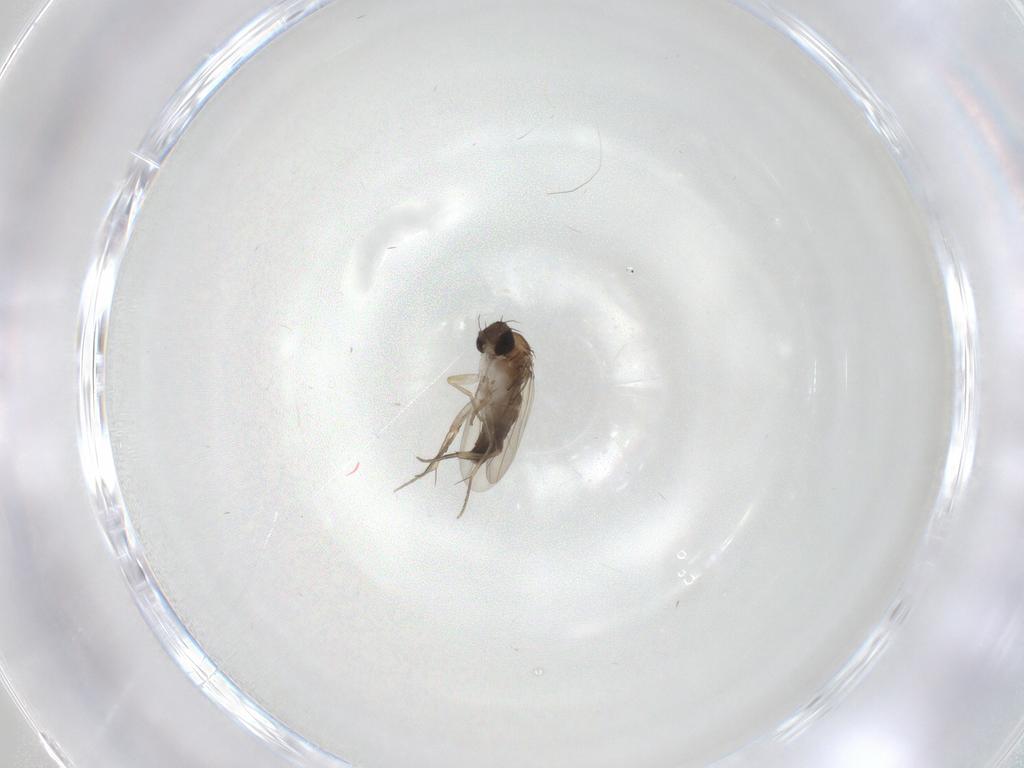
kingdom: Animalia
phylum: Arthropoda
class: Insecta
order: Diptera
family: Phoridae
